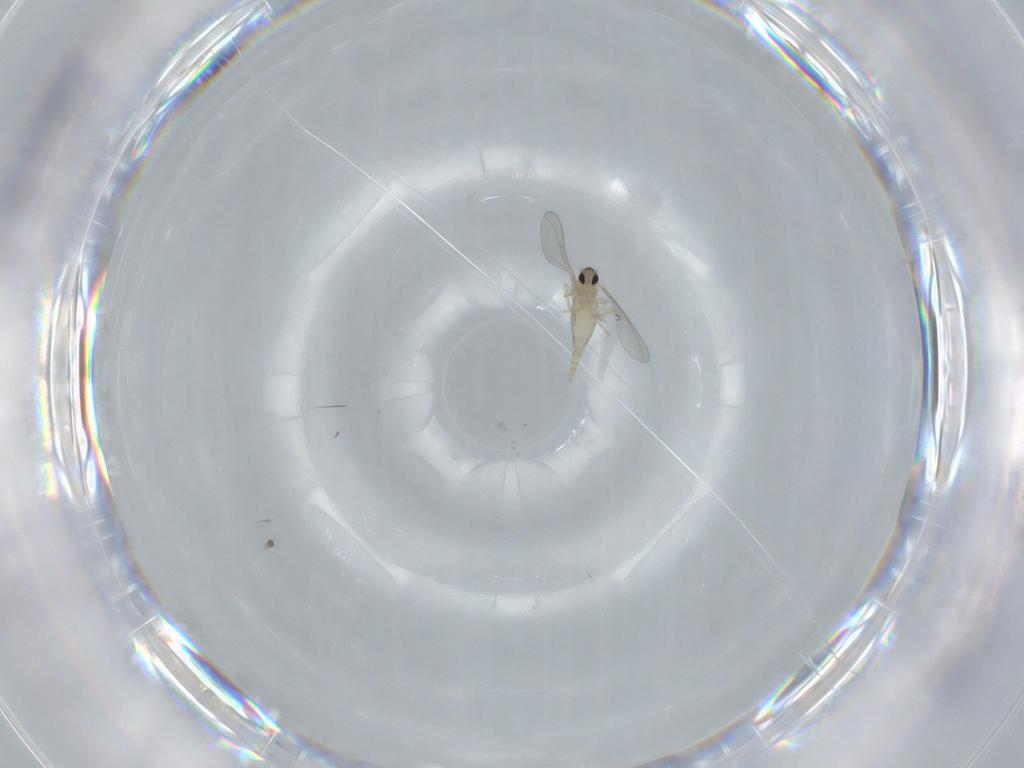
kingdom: Animalia
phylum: Arthropoda
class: Insecta
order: Diptera
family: Cecidomyiidae
